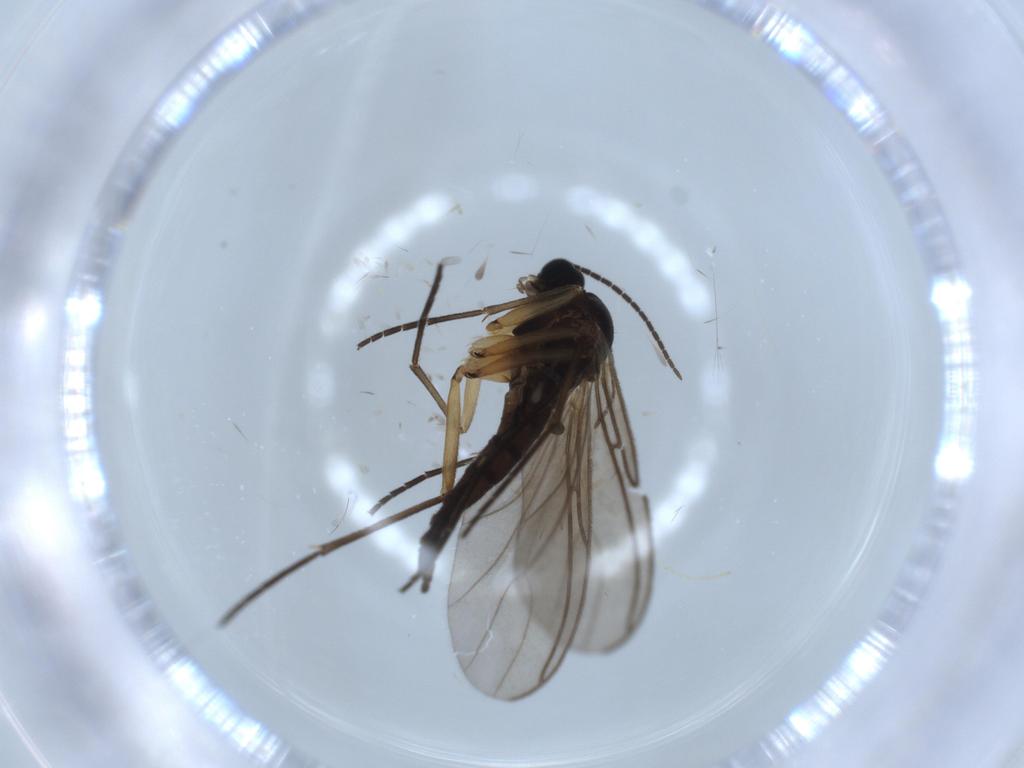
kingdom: Animalia
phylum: Arthropoda
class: Insecta
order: Diptera
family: Sciaridae
